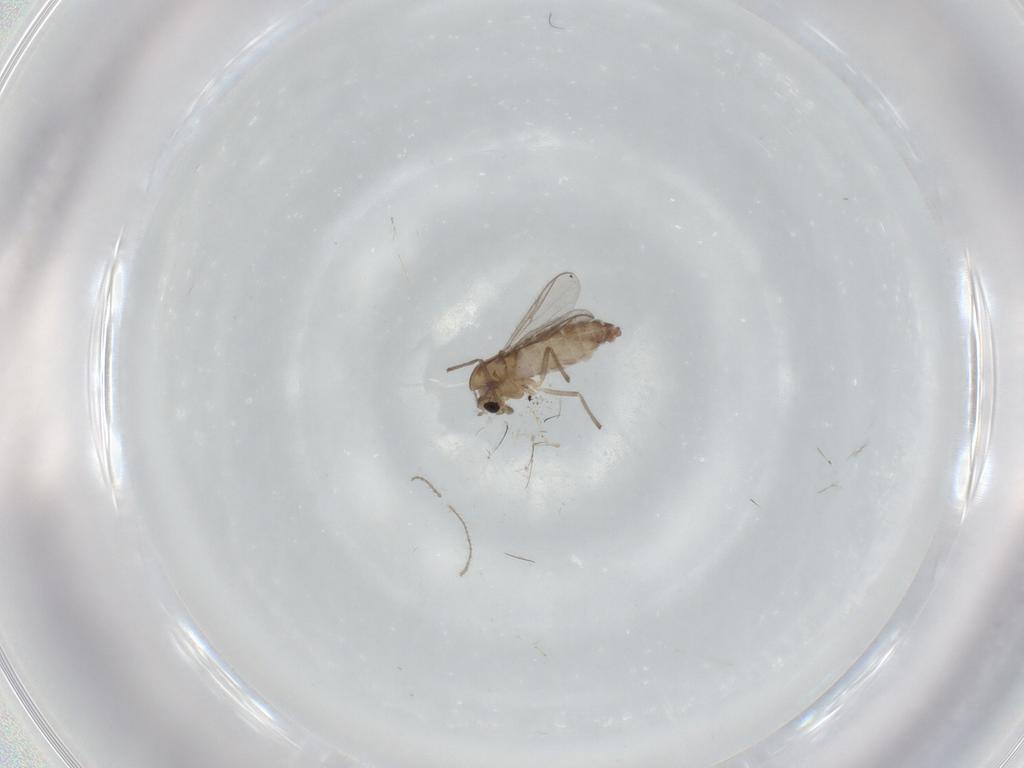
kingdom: Animalia
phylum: Arthropoda
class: Insecta
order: Diptera
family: Chironomidae
